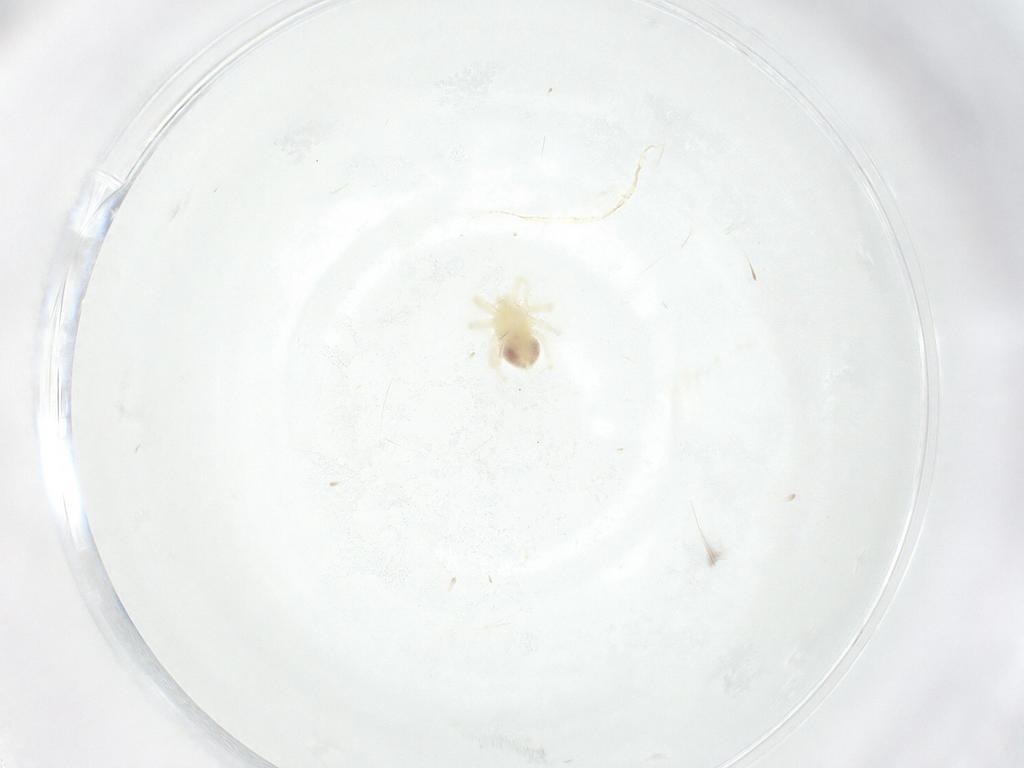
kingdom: Animalia
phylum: Arthropoda
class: Arachnida
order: Trombidiformes
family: Anystidae
